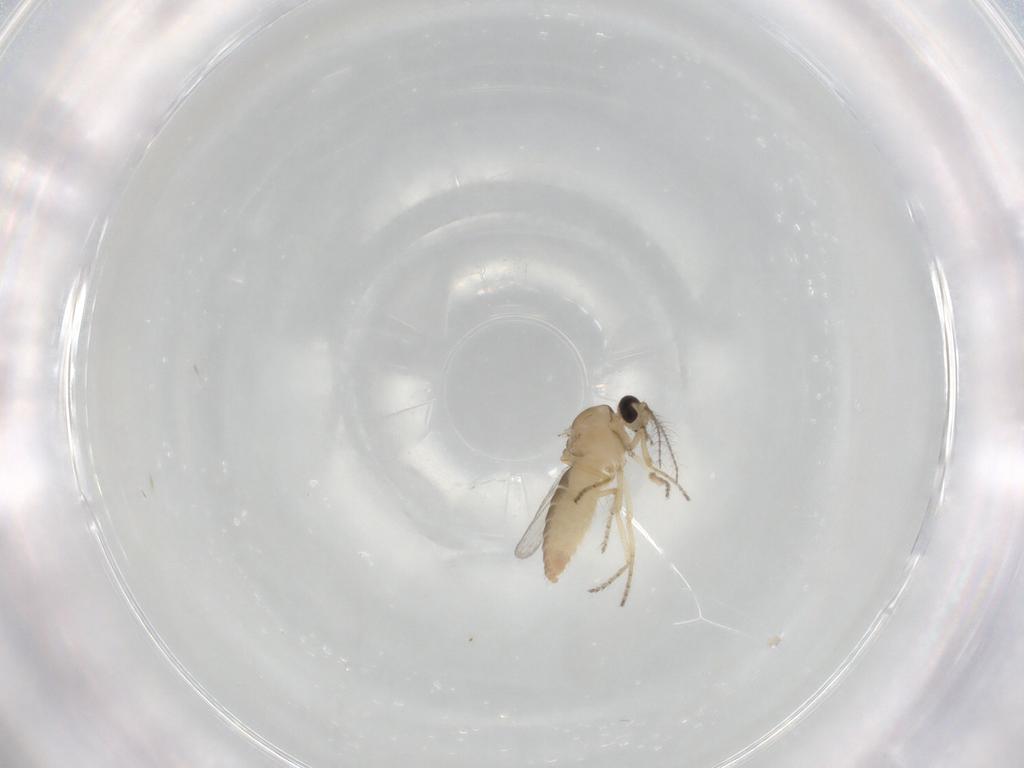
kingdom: Animalia
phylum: Arthropoda
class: Insecta
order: Diptera
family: Ceratopogonidae
